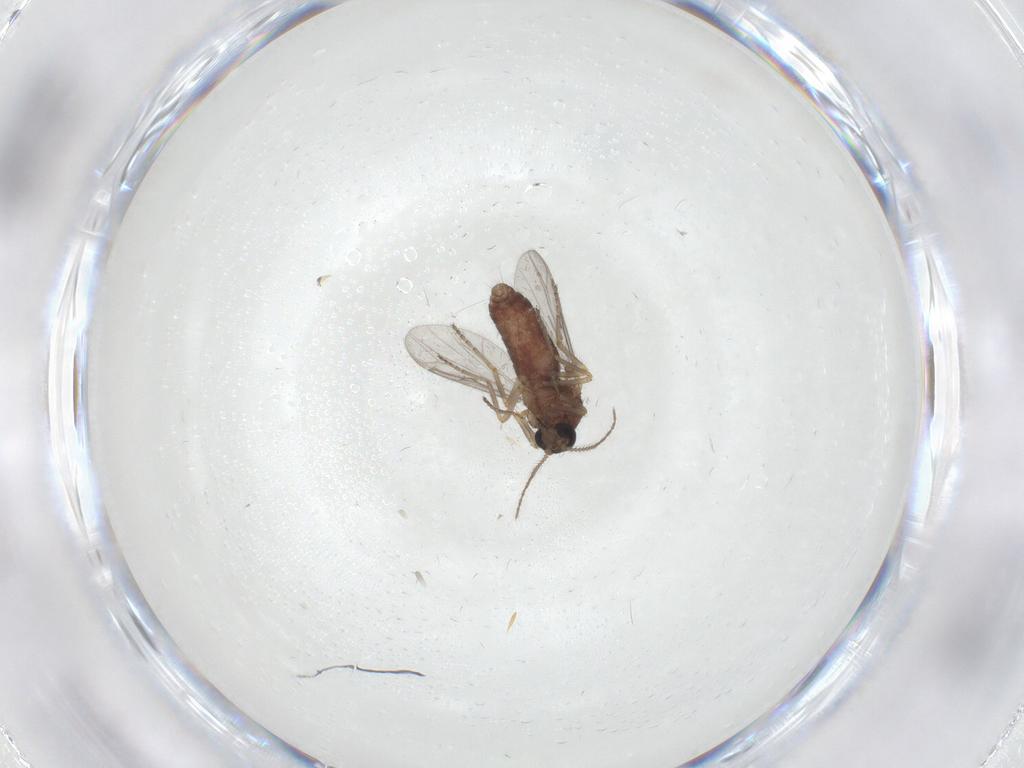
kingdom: Animalia
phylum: Arthropoda
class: Insecta
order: Diptera
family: Ceratopogonidae
